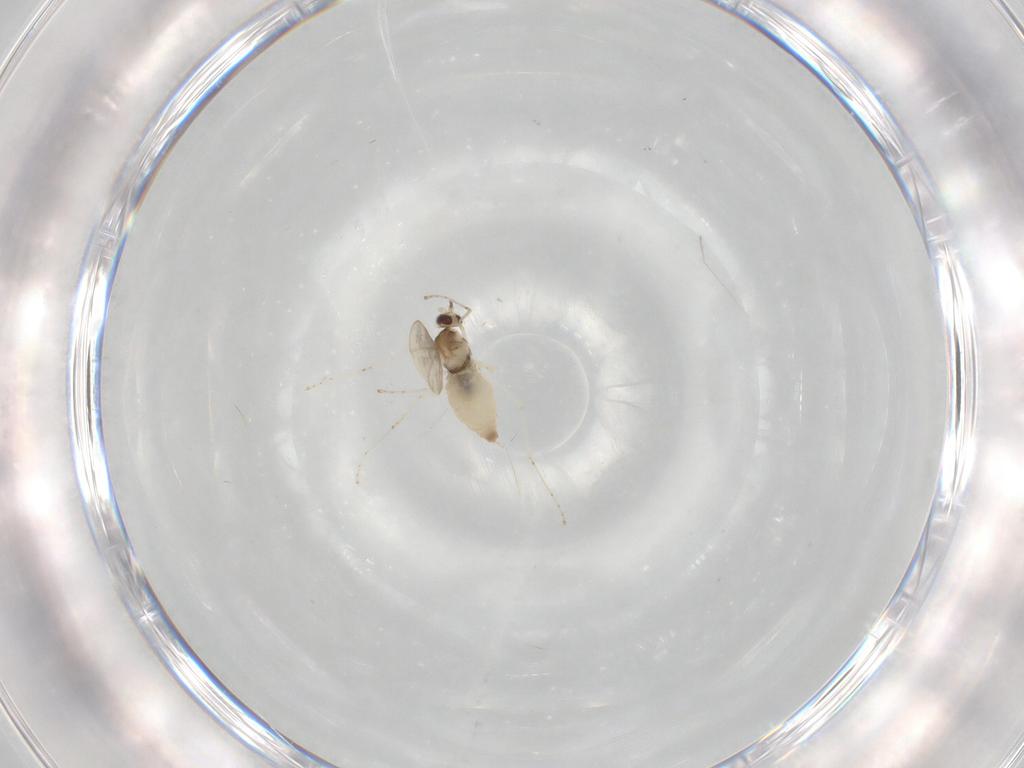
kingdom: Animalia
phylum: Arthropoda
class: Insecta
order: Diptera
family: Cecidomyiidae
